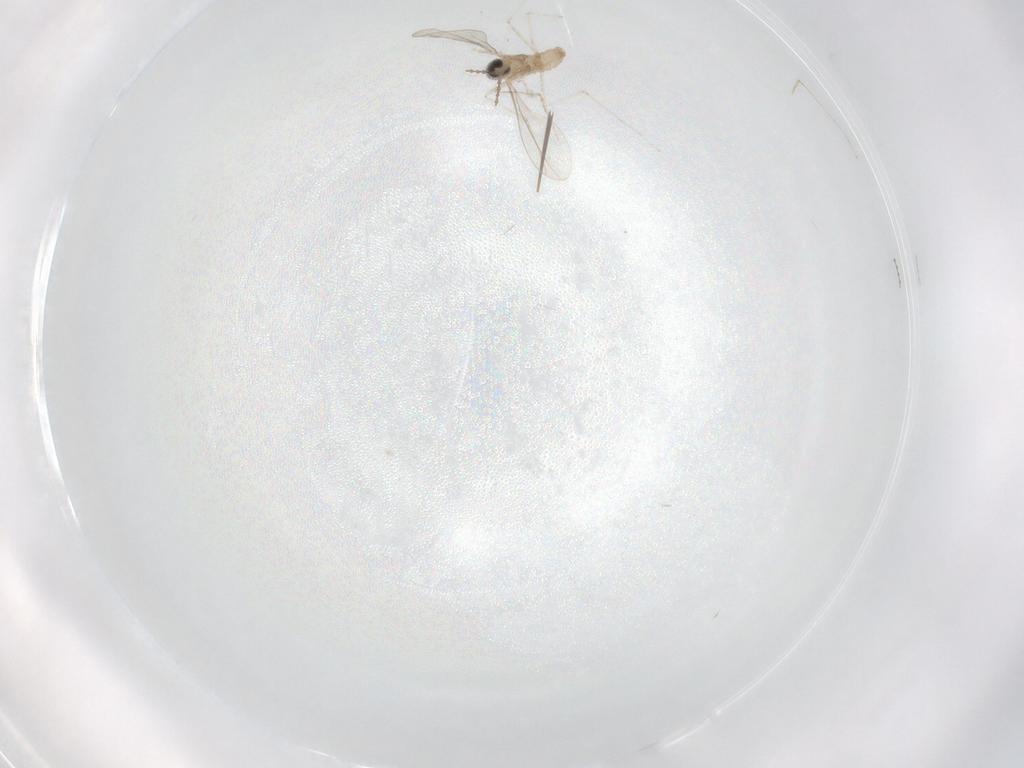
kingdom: Animalia
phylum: Arthropoda
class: Insecta
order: Diptera
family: Cecidomyiidae
